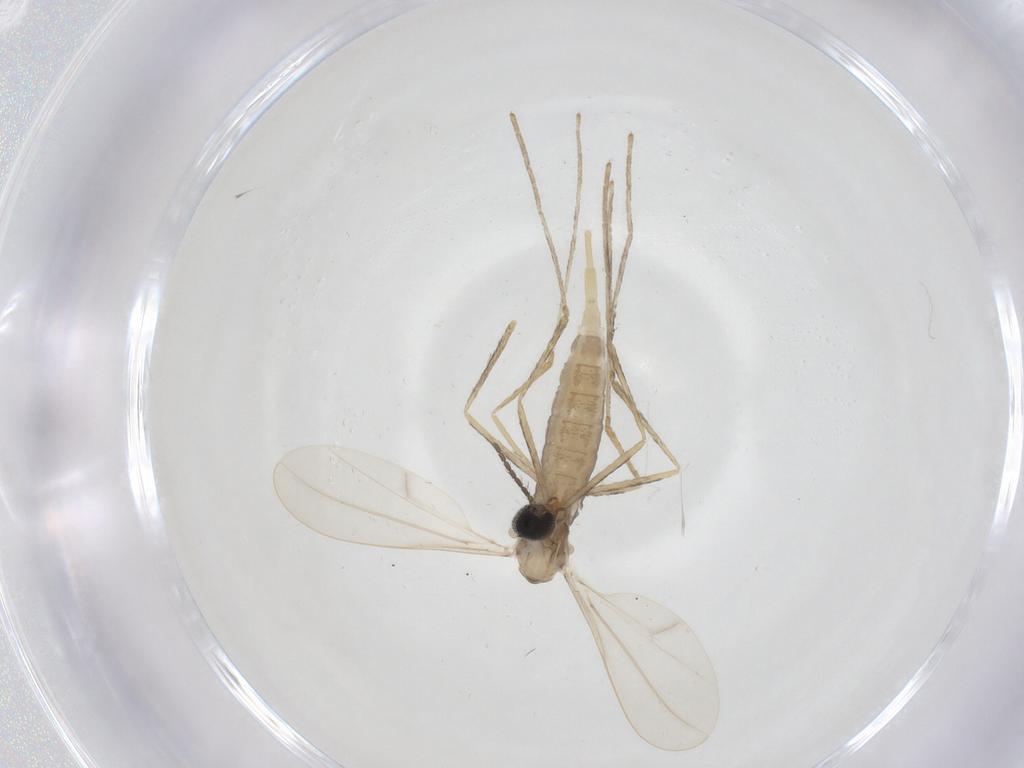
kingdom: Animalia
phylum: Arthropoda
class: Insecta
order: Diptera
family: Cecidomyiidae
